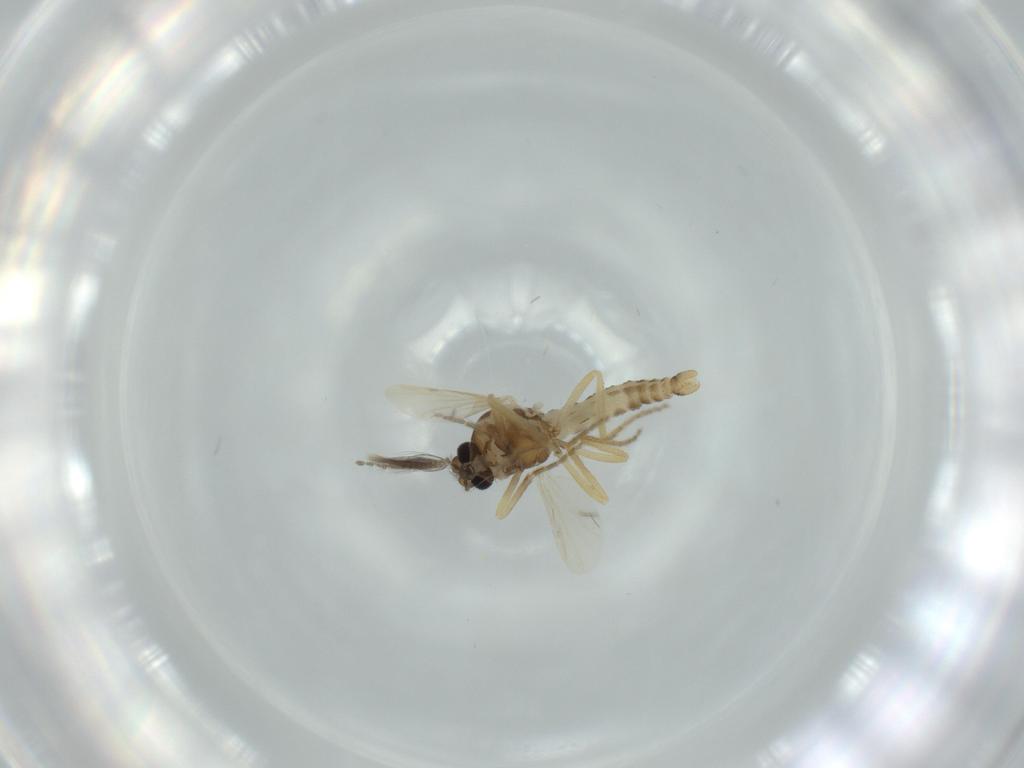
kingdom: Animalia
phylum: Arthropoda
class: Insecta
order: Diptera
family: Ceratopogonidae
